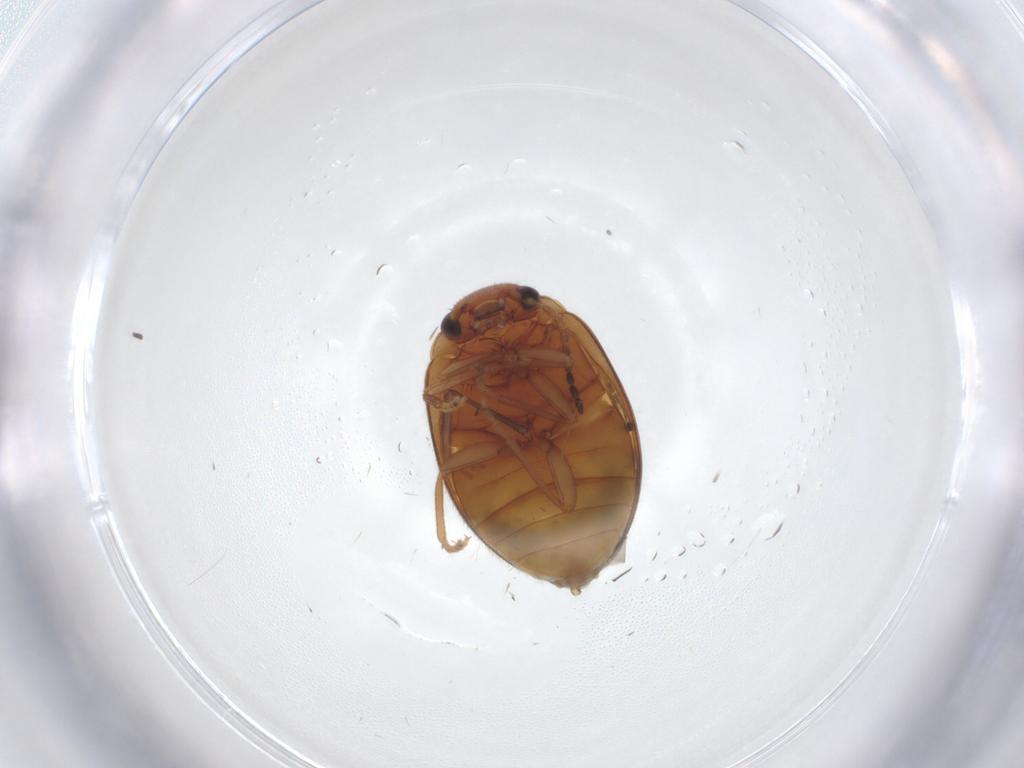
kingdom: Animalia
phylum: Arthropoda
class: Insecta
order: Coleoptera
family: Scirtidae
